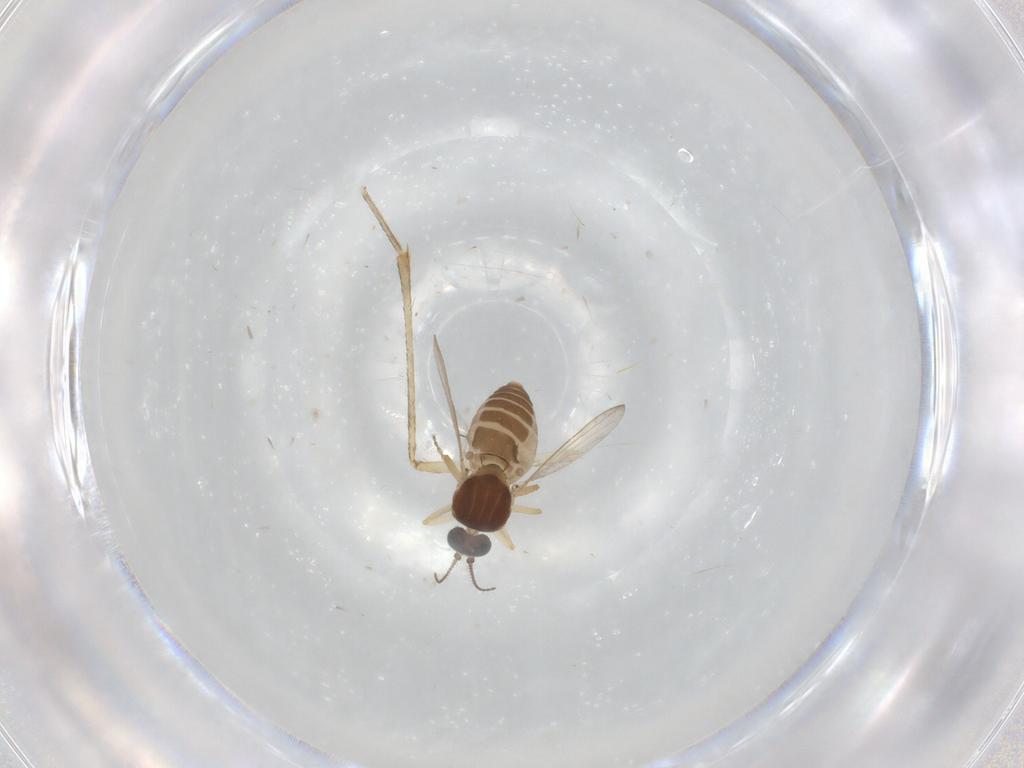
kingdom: Animalia
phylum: Arthropoda
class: Insecta
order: Diptera
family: Ceratopogonidae
